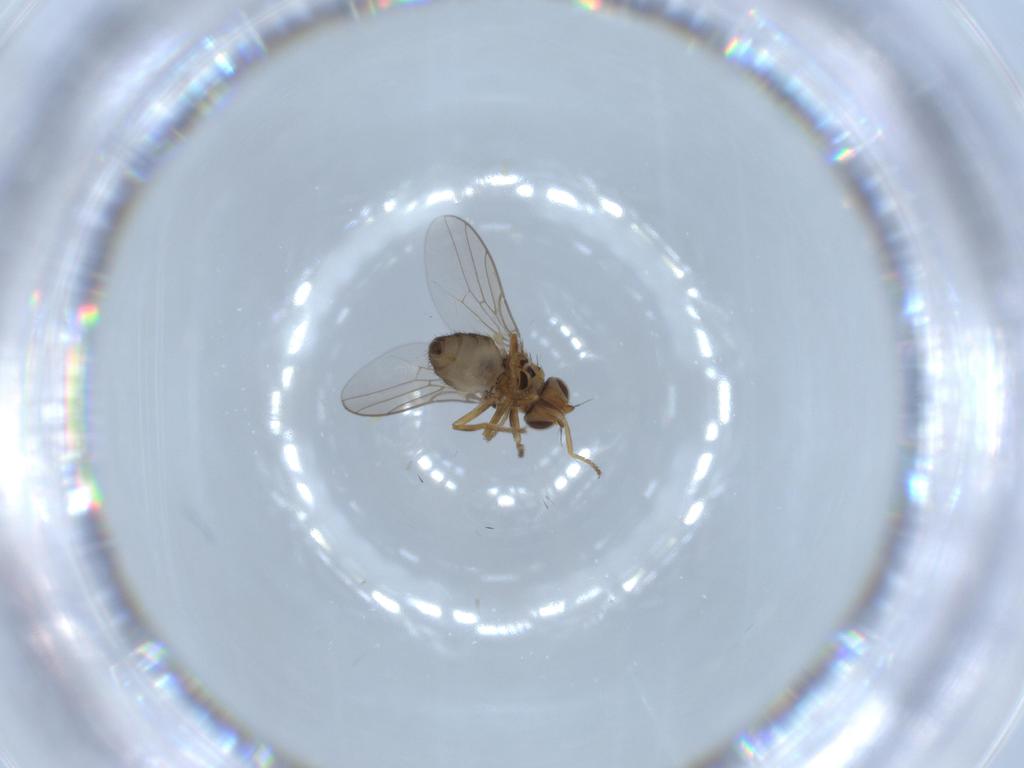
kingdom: Animalia
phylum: Arthropoda
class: Insecta
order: Diptera
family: Chloropidae
